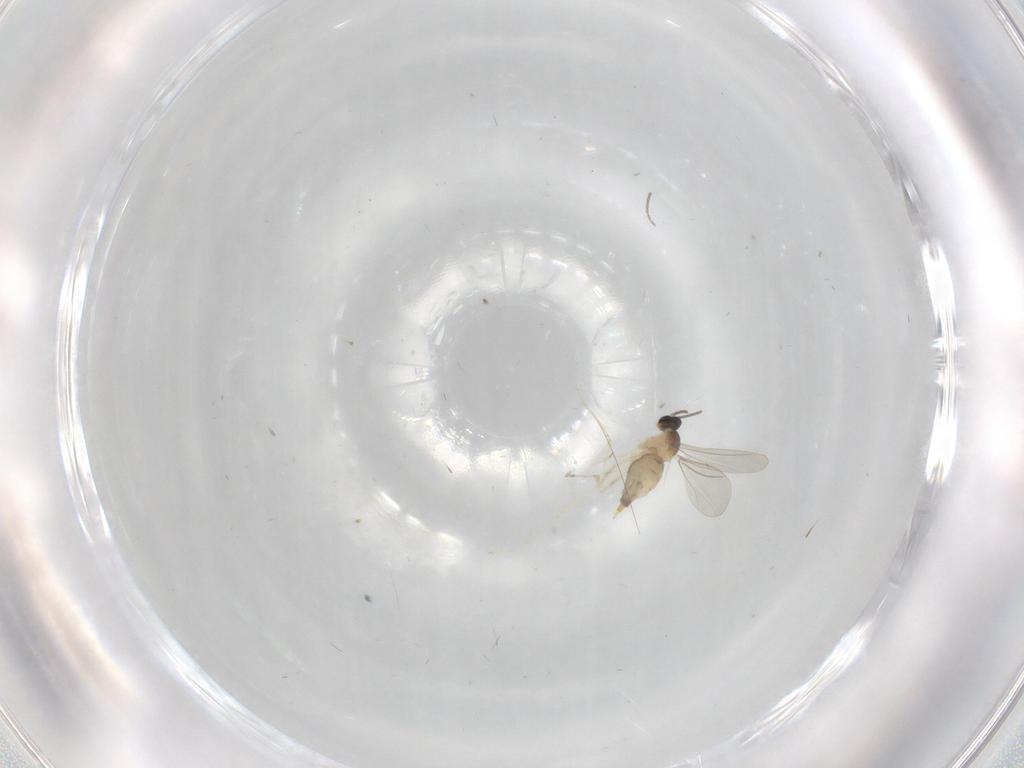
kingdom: Animalia
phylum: Arthropoda
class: Insecta
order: Diptera
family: Cecidomyiidae
